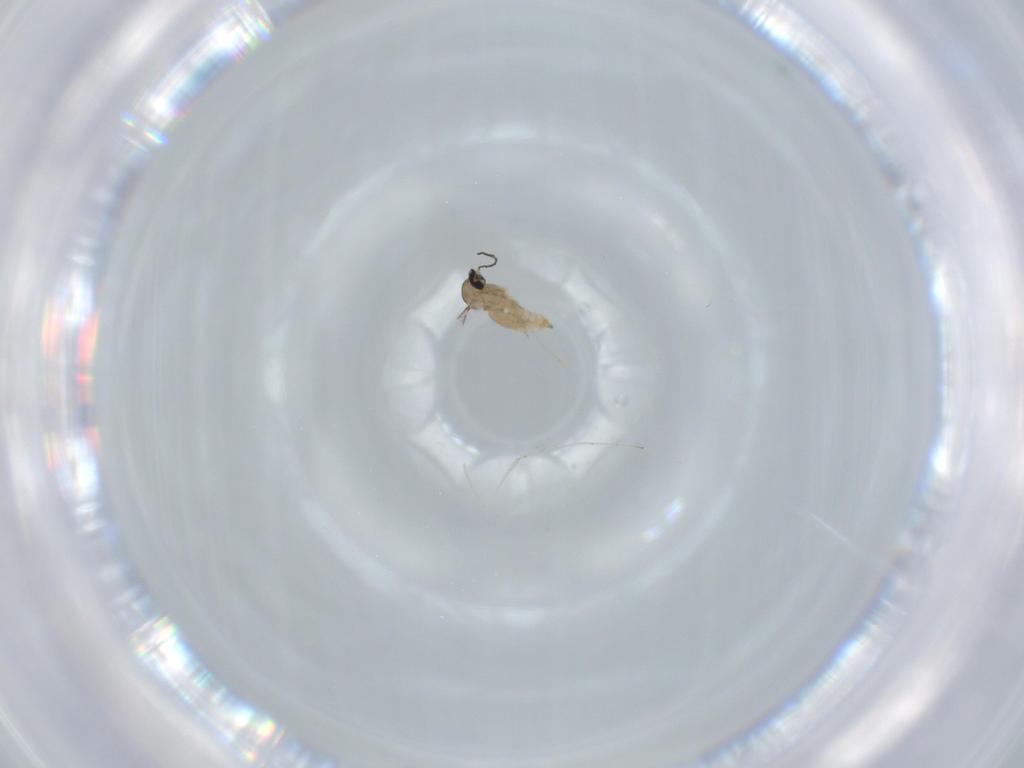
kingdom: Animalia
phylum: Arthropoda
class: Insecta
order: Diptera
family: Cecidomyiidae
